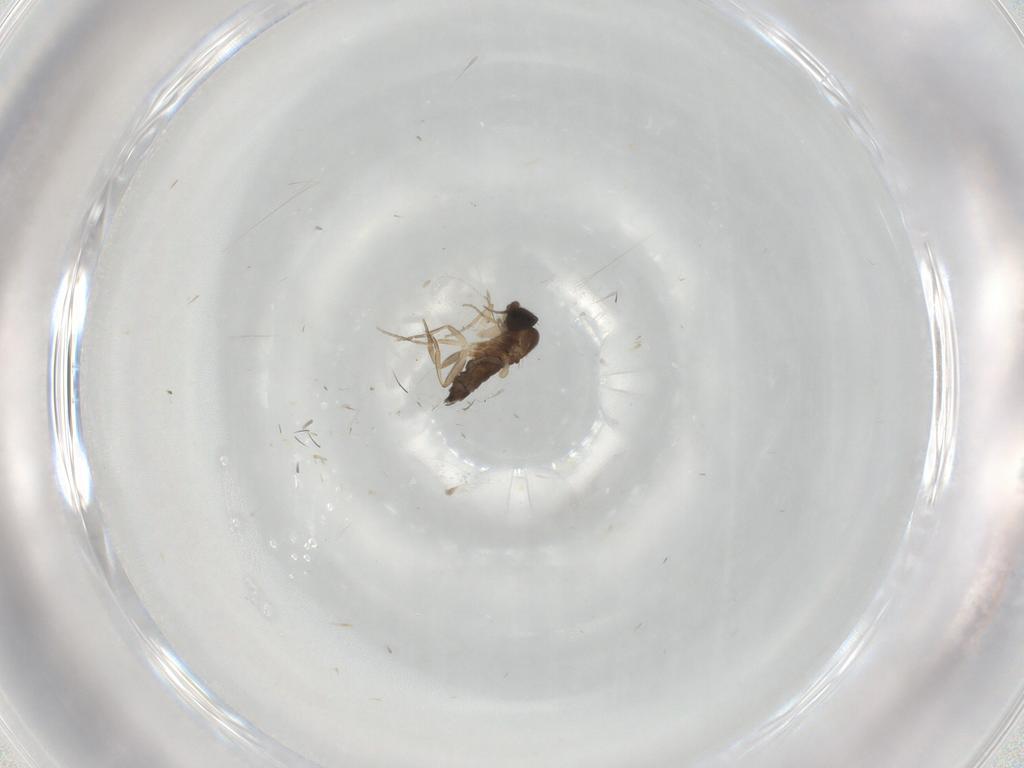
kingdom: Animalia
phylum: Arthropoda
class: Insecta
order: Diptera
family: Phoridae
